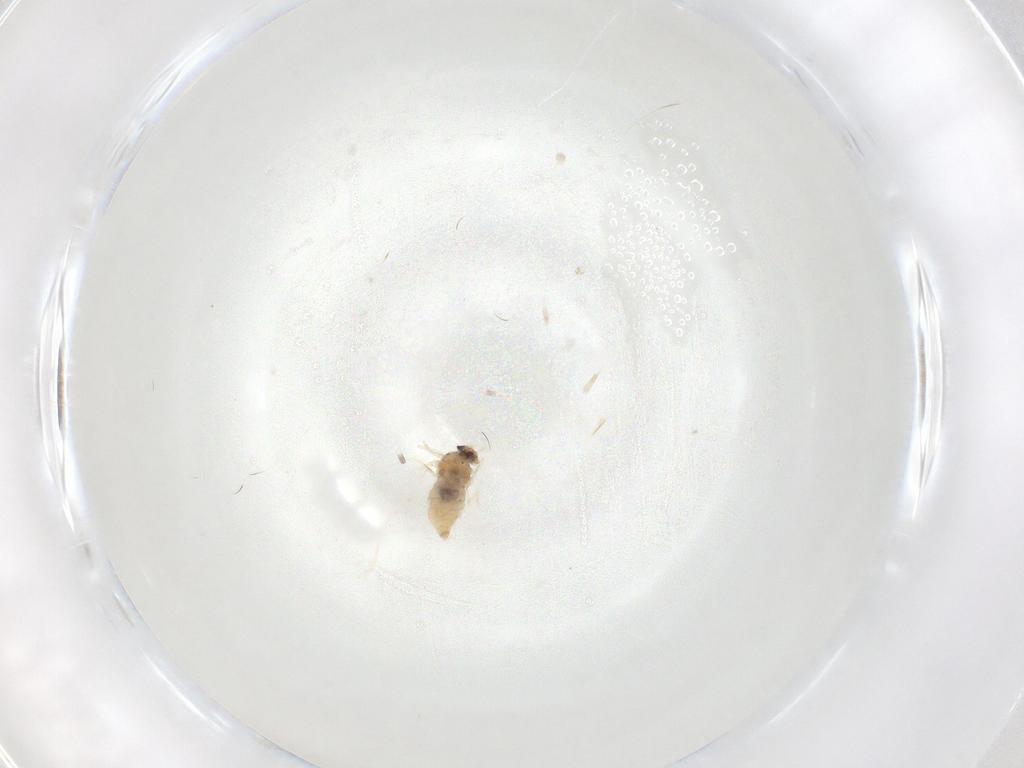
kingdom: Animalia
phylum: Arthropoda
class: Insecta
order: Diptera
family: Cecidomyiidae
